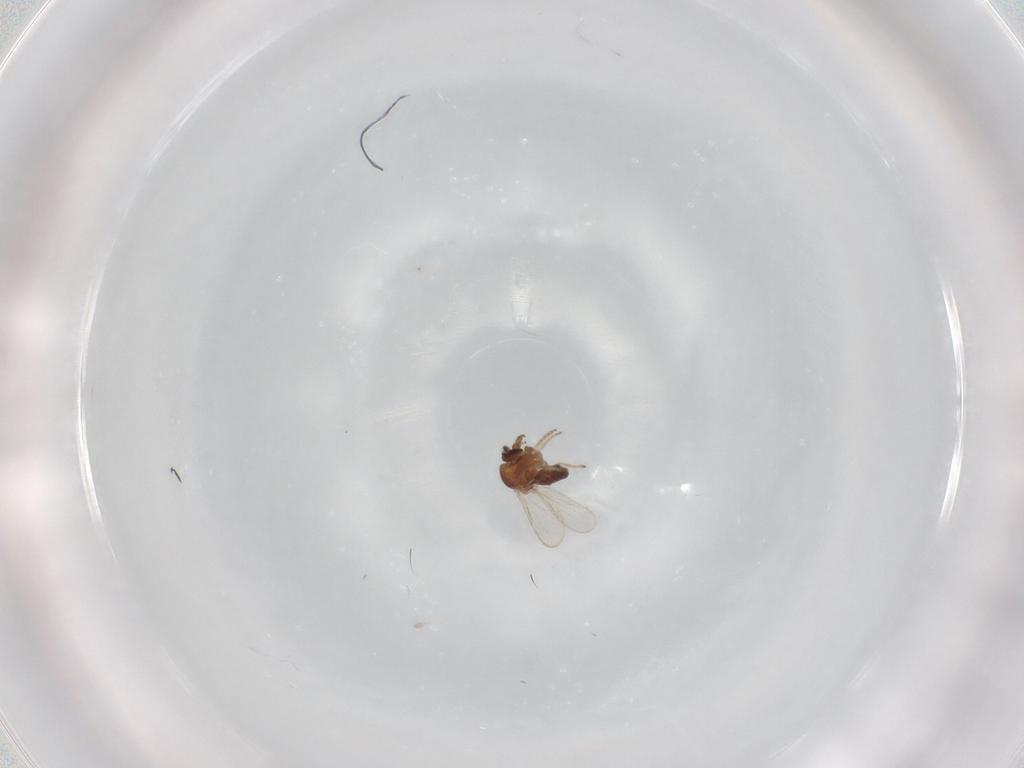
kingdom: Animalia
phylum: Arthropoda
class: Insecta
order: Diptera
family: Ceratopogonidae
